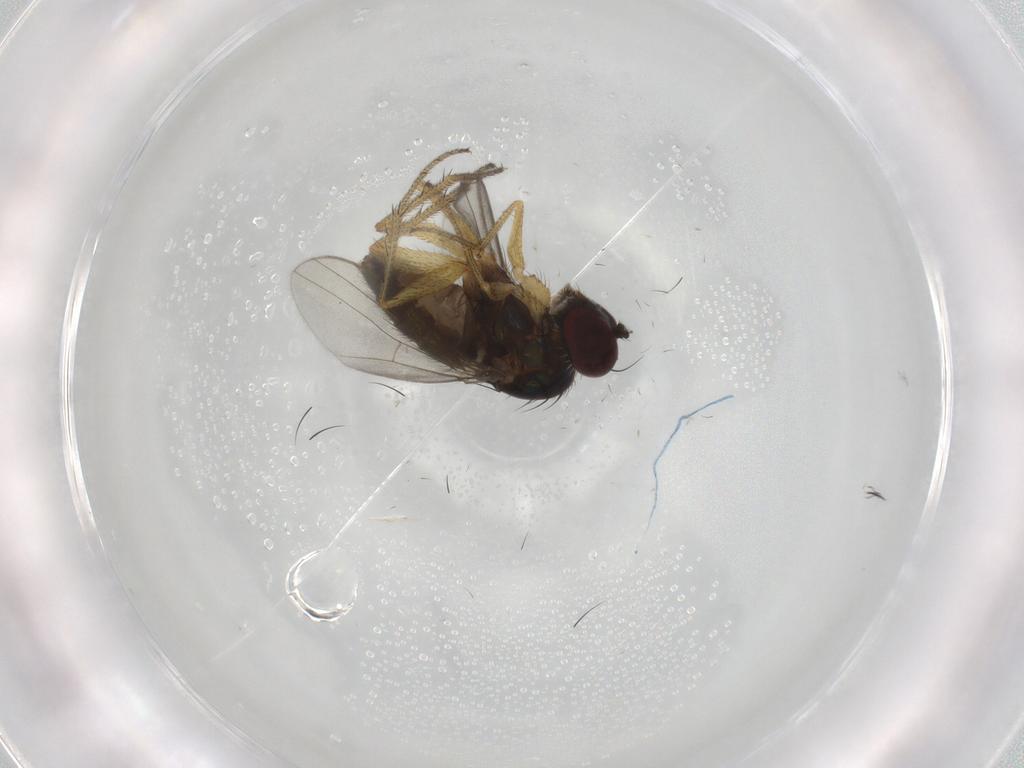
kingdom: Animalia
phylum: Arthropoda
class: Insecta
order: Diptera
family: Dolichopodidae
